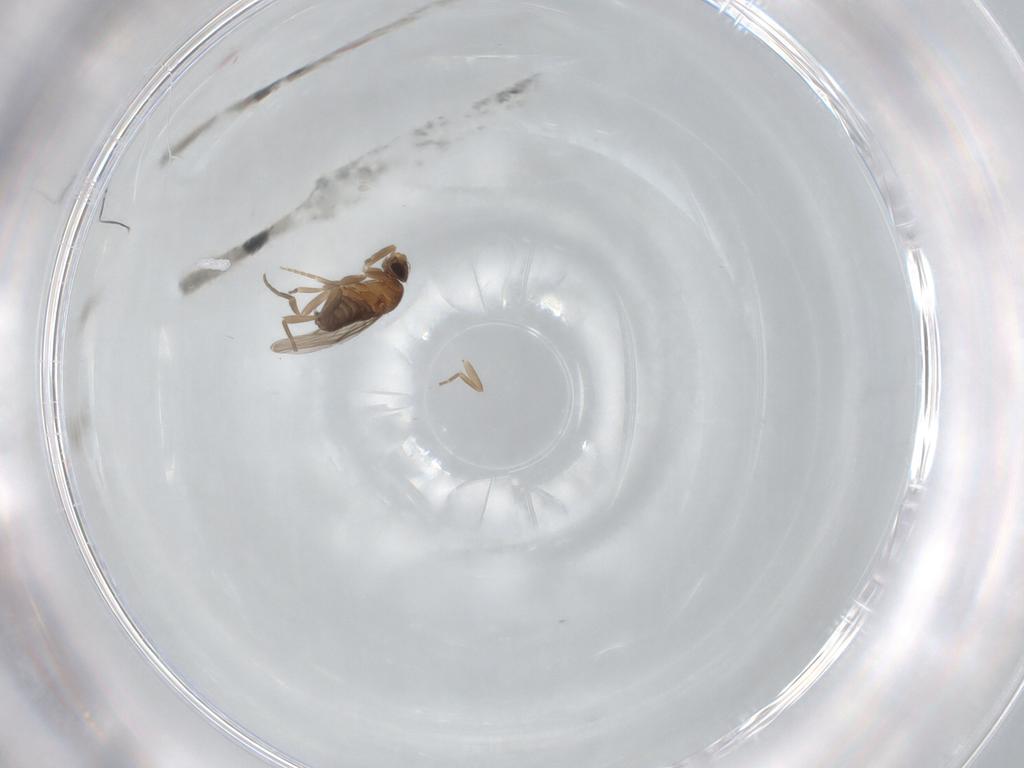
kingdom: Animalia
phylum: Arthropoda
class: Insecta
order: Diptera
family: Phoridae
